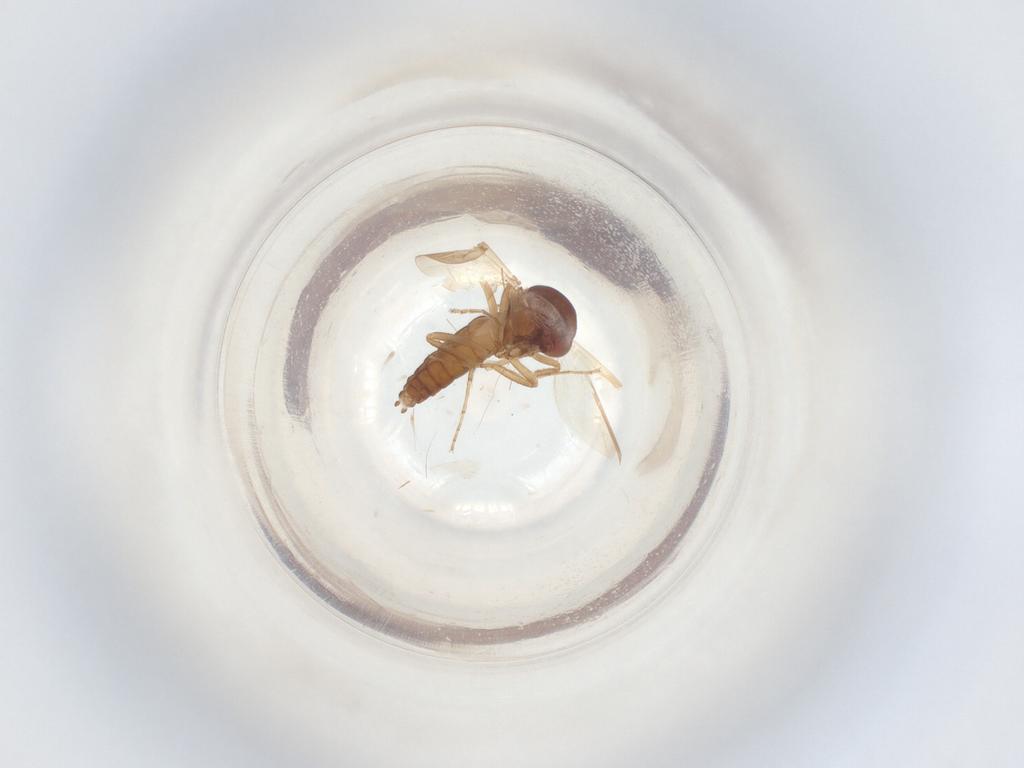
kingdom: Animalia
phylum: Arthropoda
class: Insecta
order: Diptera
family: Ceratopogonidae
